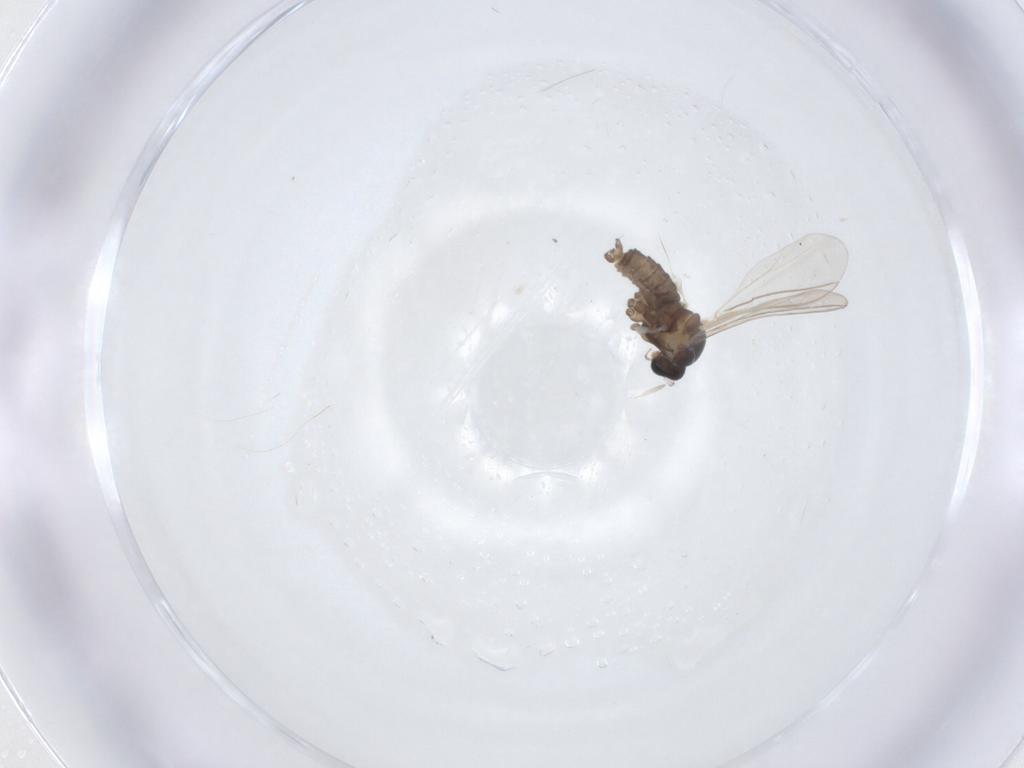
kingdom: Animalia
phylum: Arthropoda
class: Insecta
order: Diptera
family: Cecidomyiidae
